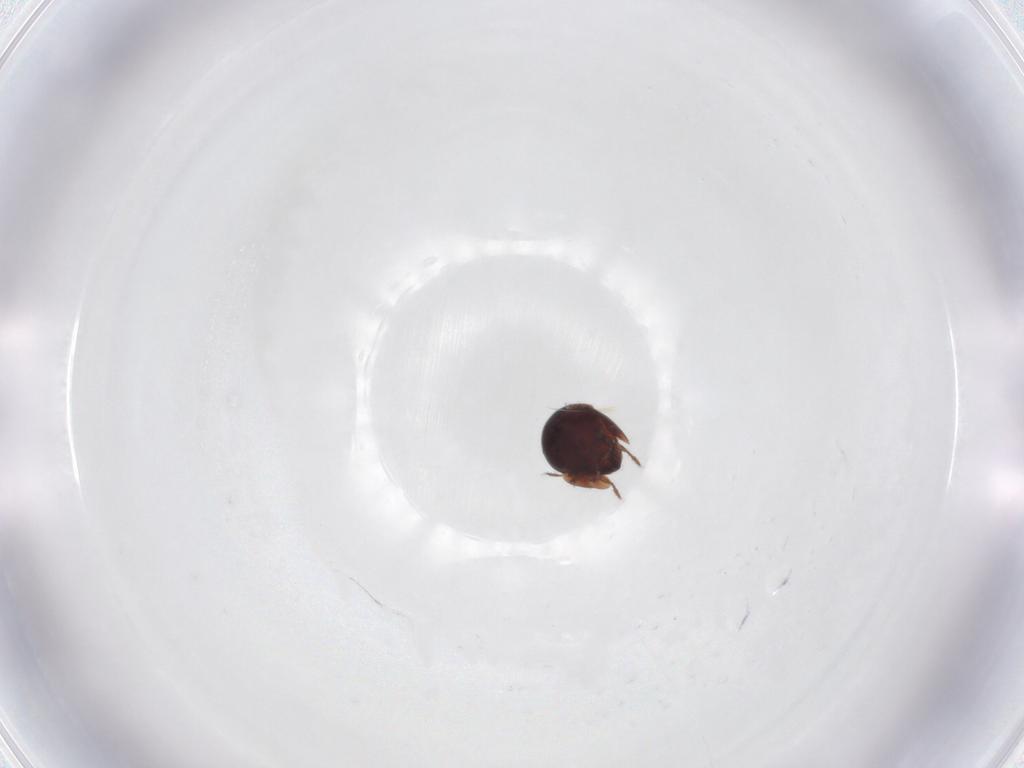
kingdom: Animalia
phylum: Arthropoda
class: Arachnida
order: Sarcoptiformes
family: Galumnidae
